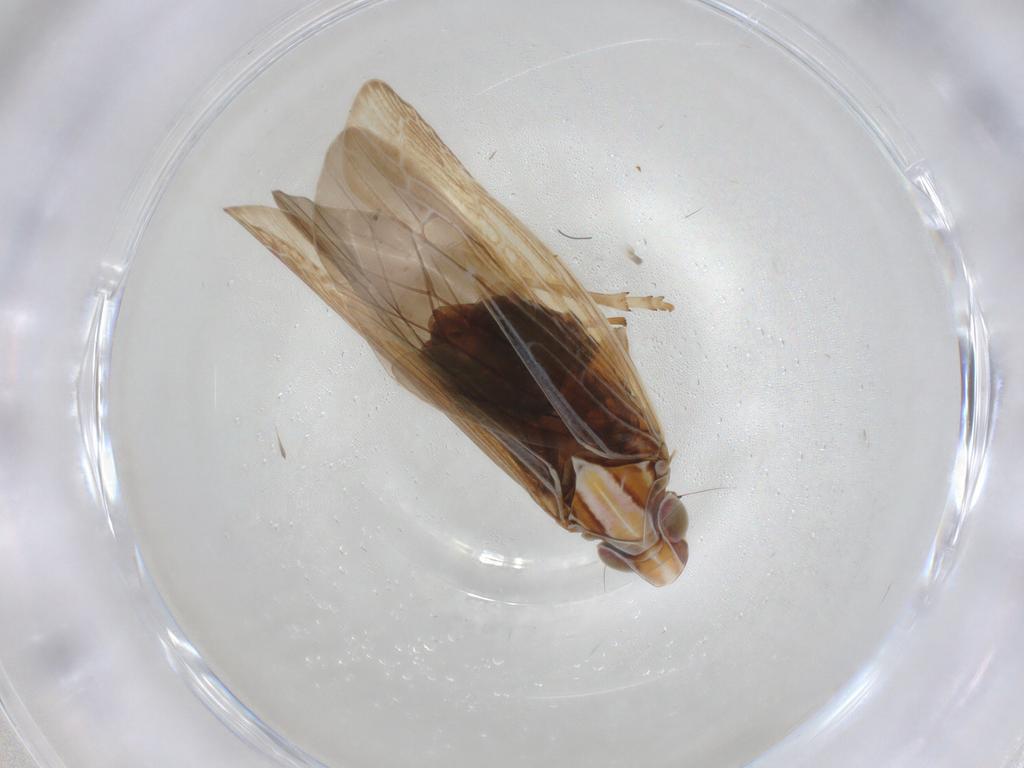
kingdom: Animalia
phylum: Arthropoda
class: Insecta
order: Hemiptera
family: Achilidae
